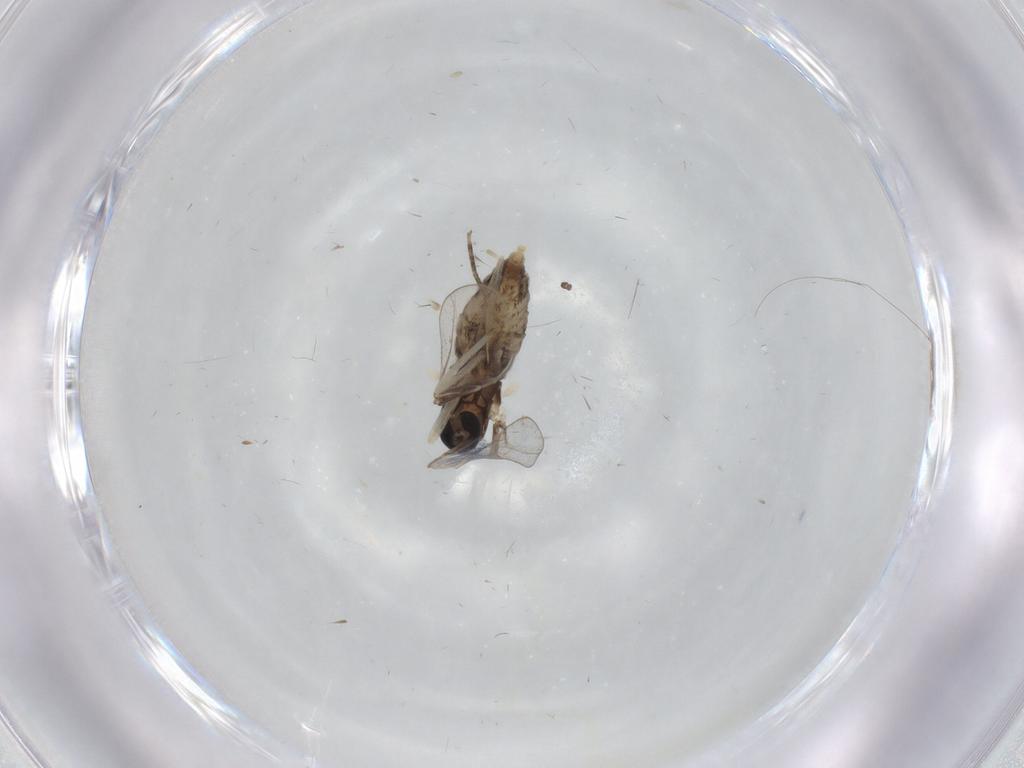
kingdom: Animalia
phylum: Arthropoda
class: Insecta
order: Diptera
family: Cecidomyiidae
